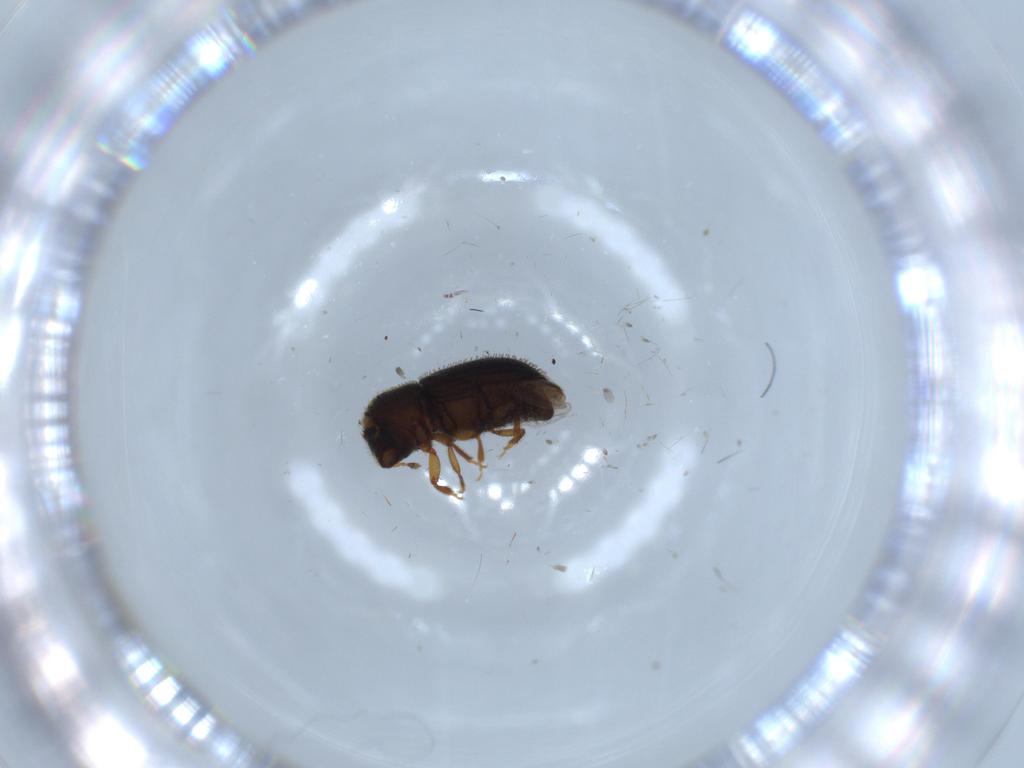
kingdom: Animalia
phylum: Arthropoda
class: Insecta
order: Coleoptera
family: Curculionidae
